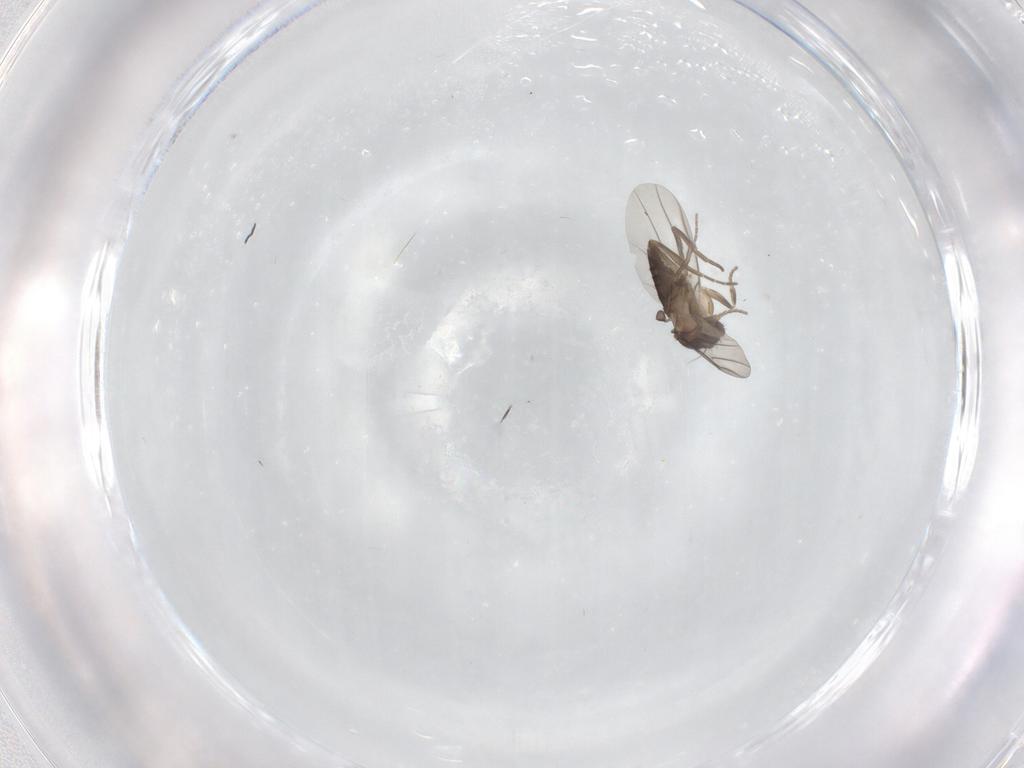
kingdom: Animalia
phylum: Arthropoda
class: Insecta
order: Diptera
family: Phoridae
